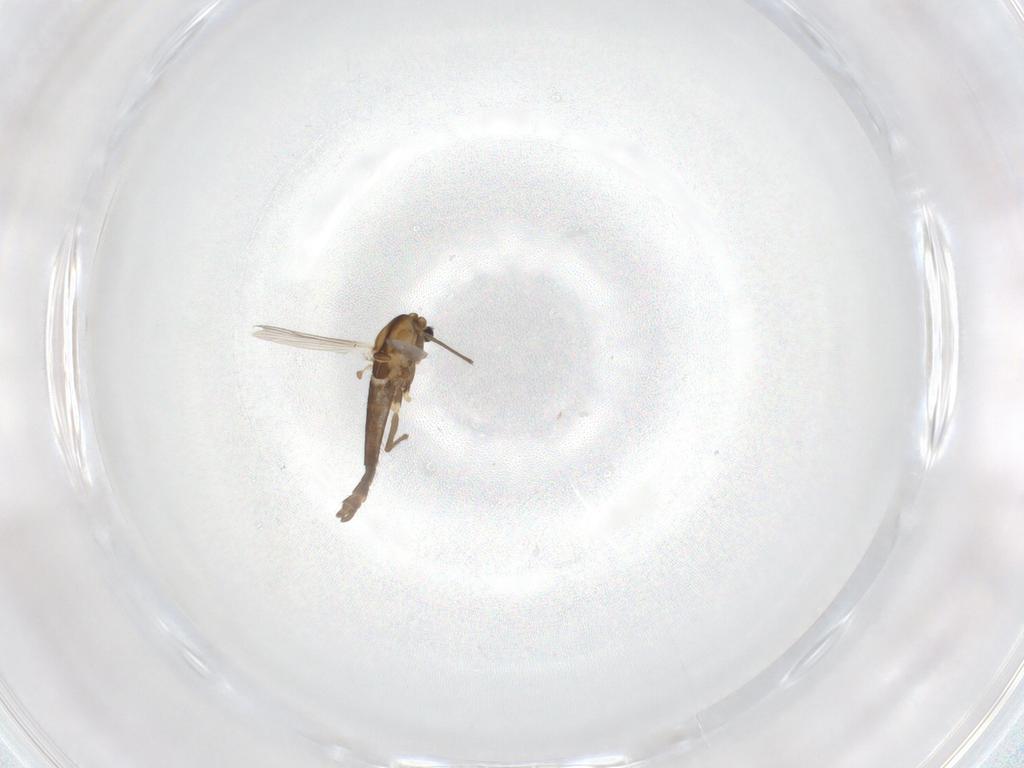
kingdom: Animalia
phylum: Arthropoda
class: Insecta
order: Diptera
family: Chironomidae
